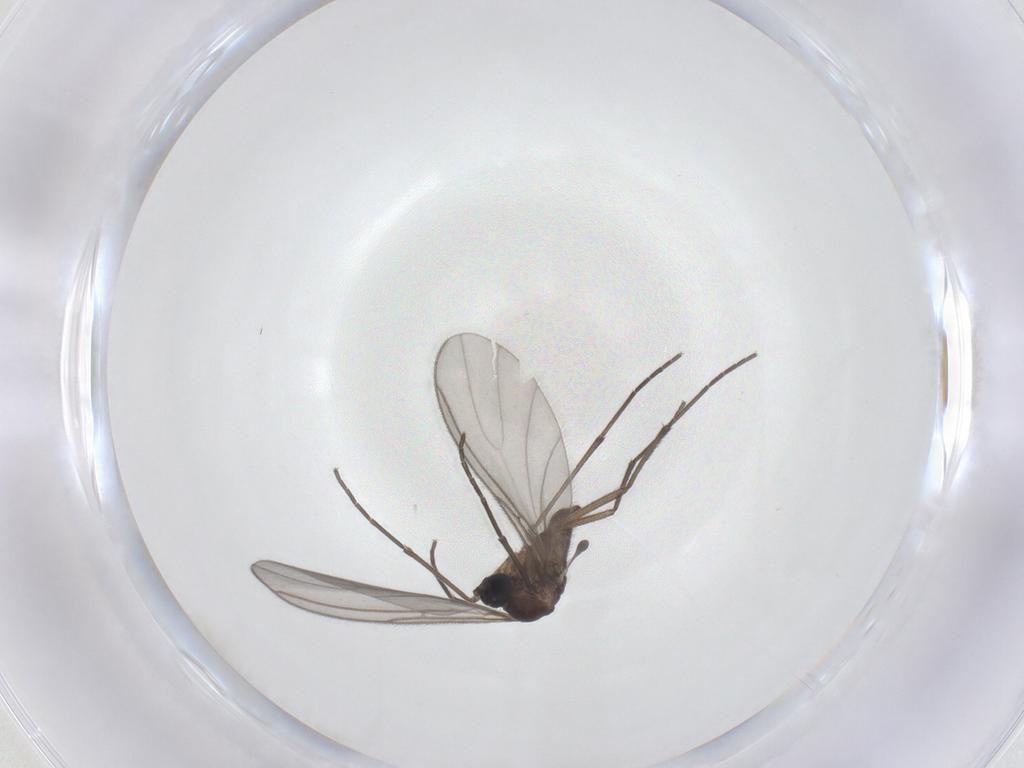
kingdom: Animalia
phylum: Arthropoda
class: Insecta
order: Diptera
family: Sciaridae
